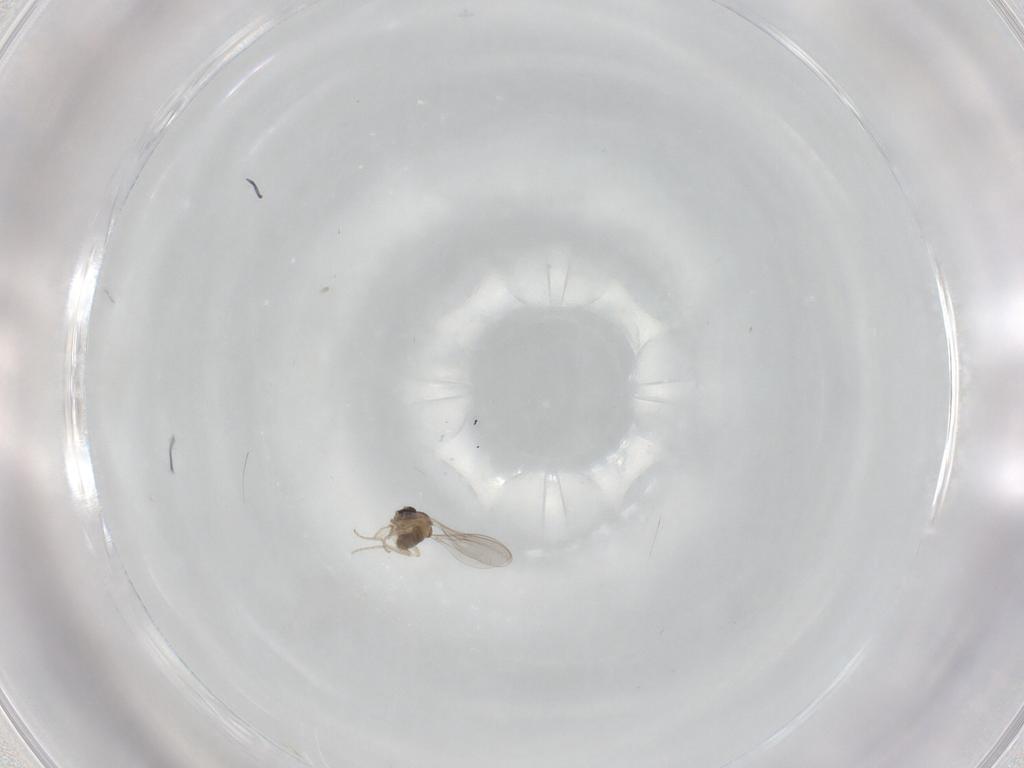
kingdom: Animalia
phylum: Arthropoda
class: Insecta
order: Diptera
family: Cecidomyiidae
